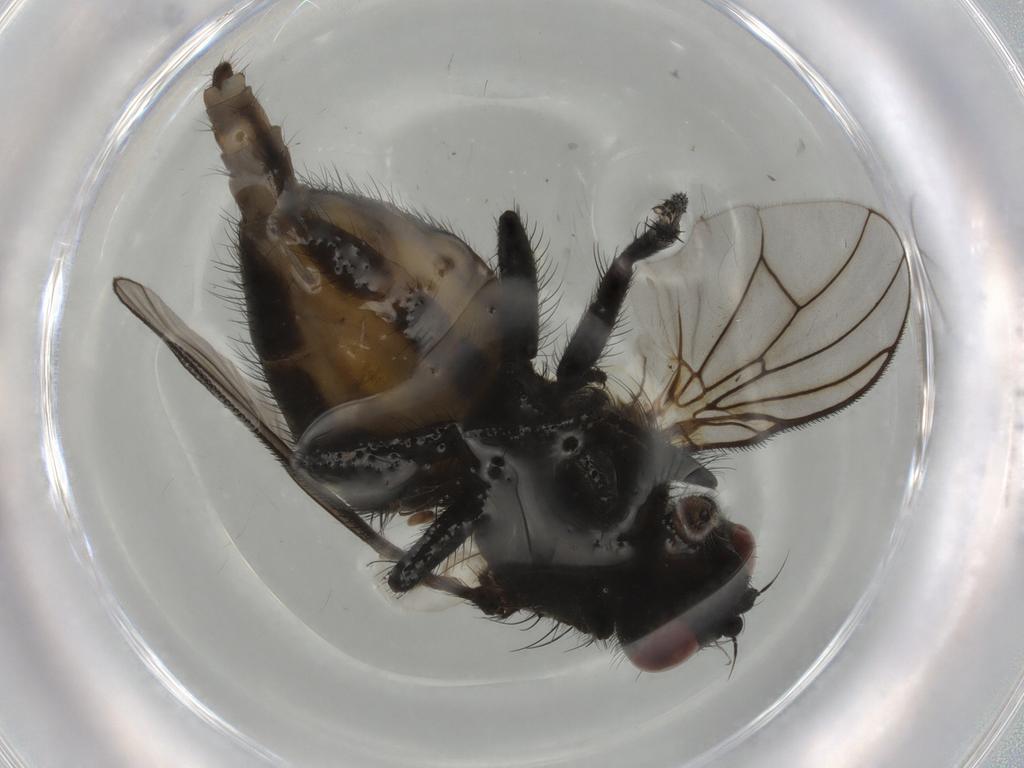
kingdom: Animalia
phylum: Arthropoda
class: Insecta
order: Diptera
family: Muscidae
